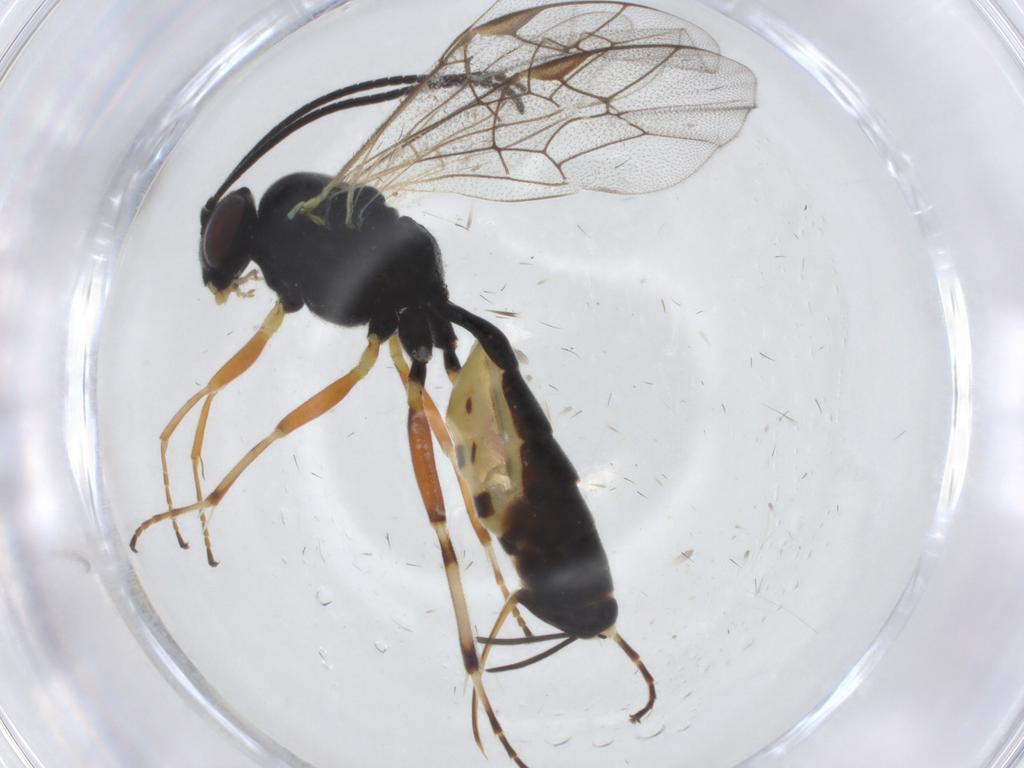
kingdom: Animalia
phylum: Arthropoda
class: Insecta
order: Hymenoptera
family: Ichneumonidae
